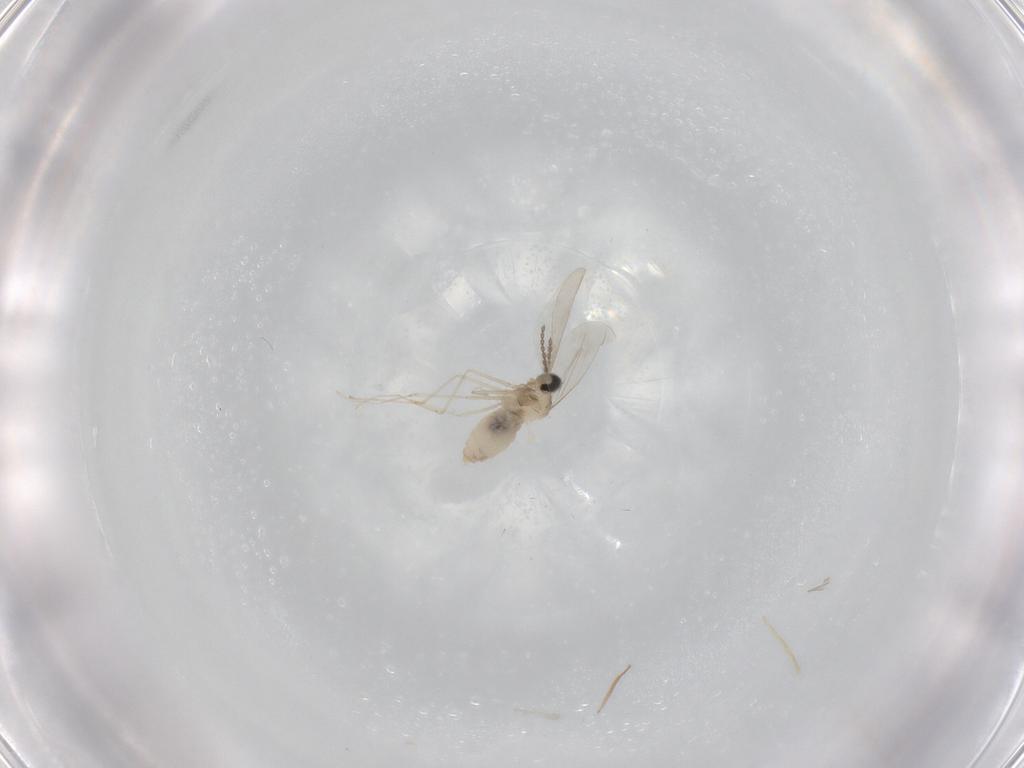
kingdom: Animalia
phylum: Arthropoda
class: Insecta
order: Diptera
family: Cecidomyiidae
